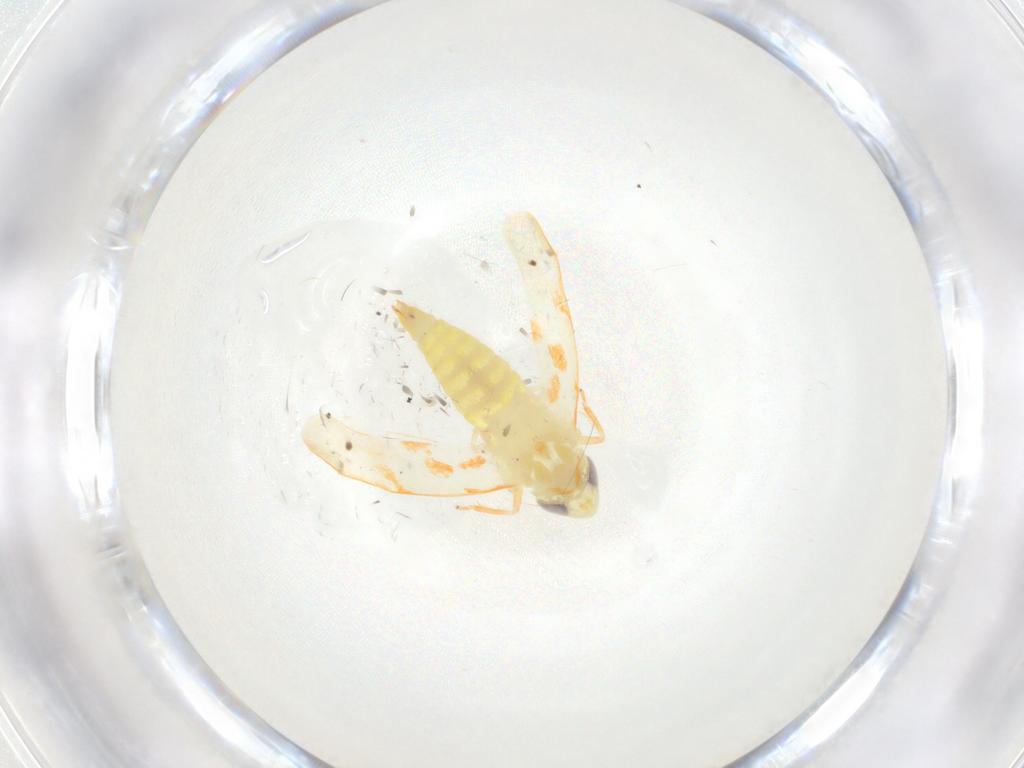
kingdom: Animalia
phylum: Arthropoda
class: Insecta
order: Hemiptera
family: Cicadellidae
